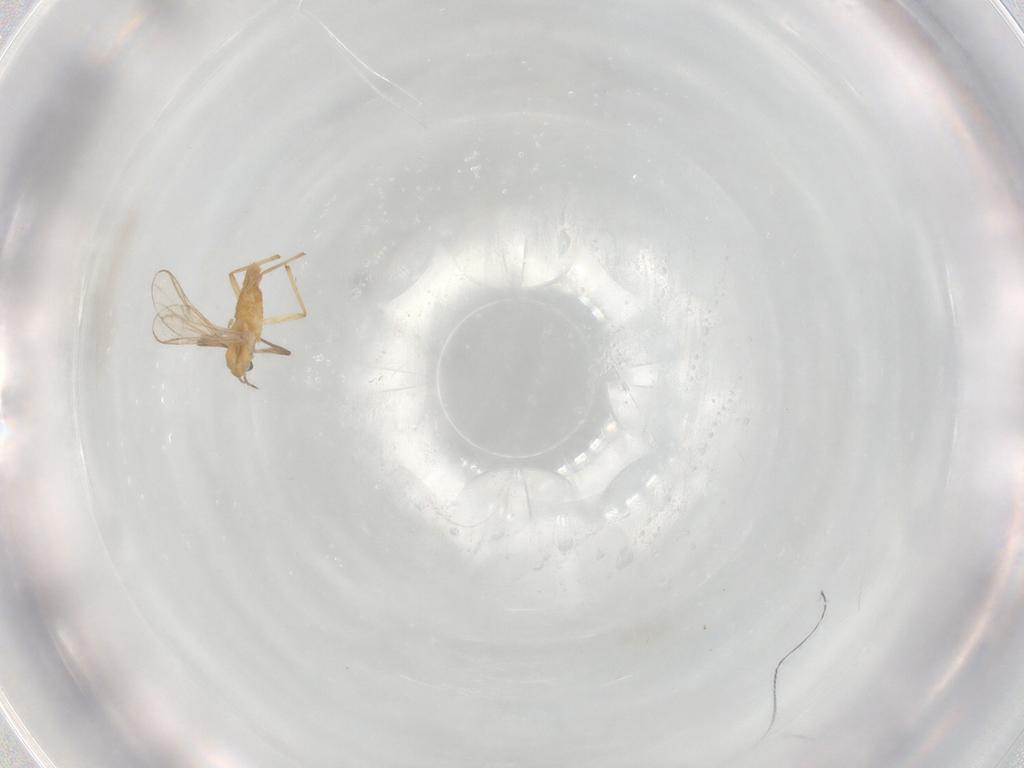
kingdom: Animalia
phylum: Arthropoda
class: Insecta
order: Diptera
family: Chironomidae
